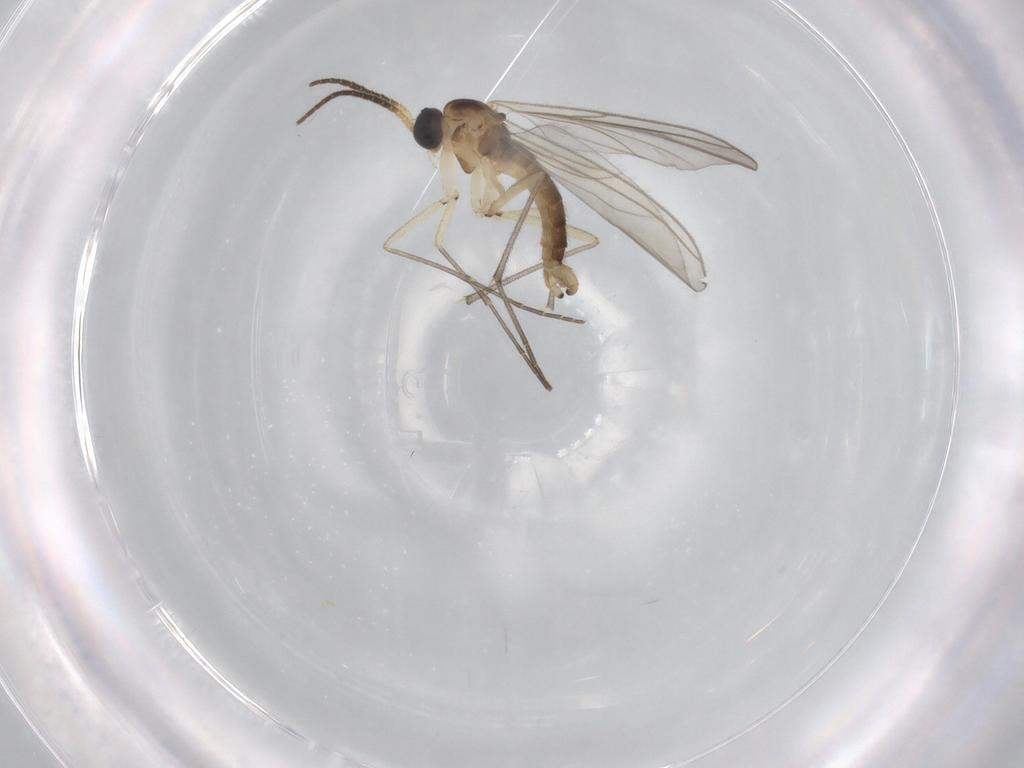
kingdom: Animalia
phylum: Arthropoda
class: Insecta
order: Diptera
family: Sciaridae
